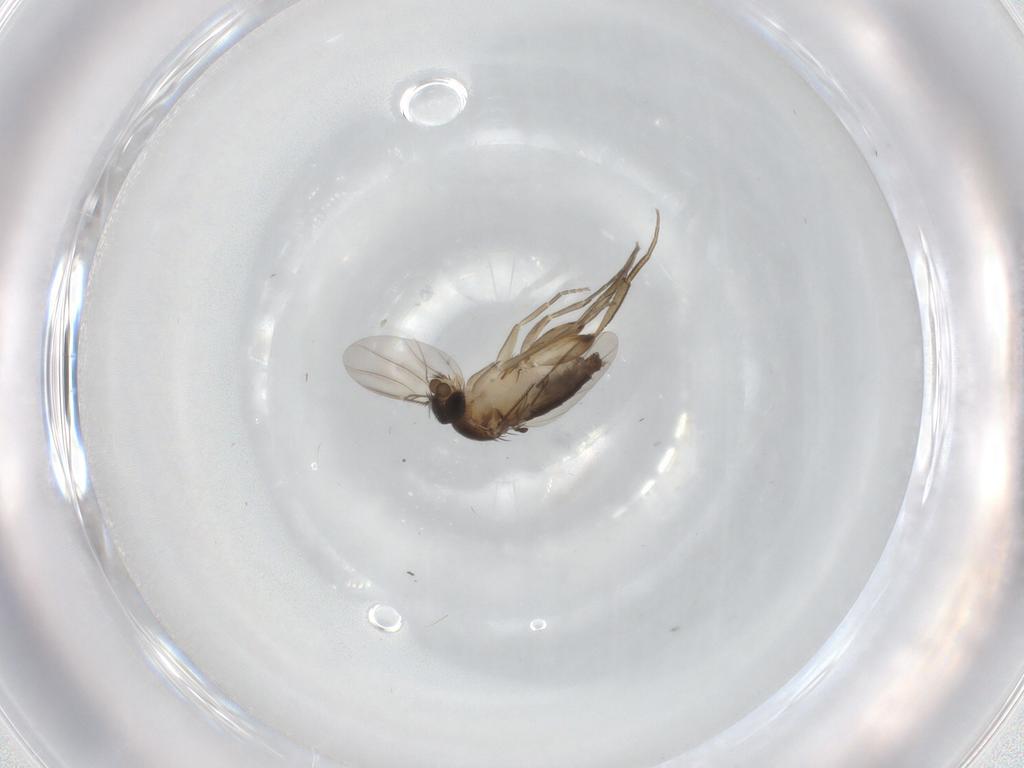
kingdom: Animalia
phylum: Arthropoda
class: Insecta
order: Diptera
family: Phoridae
